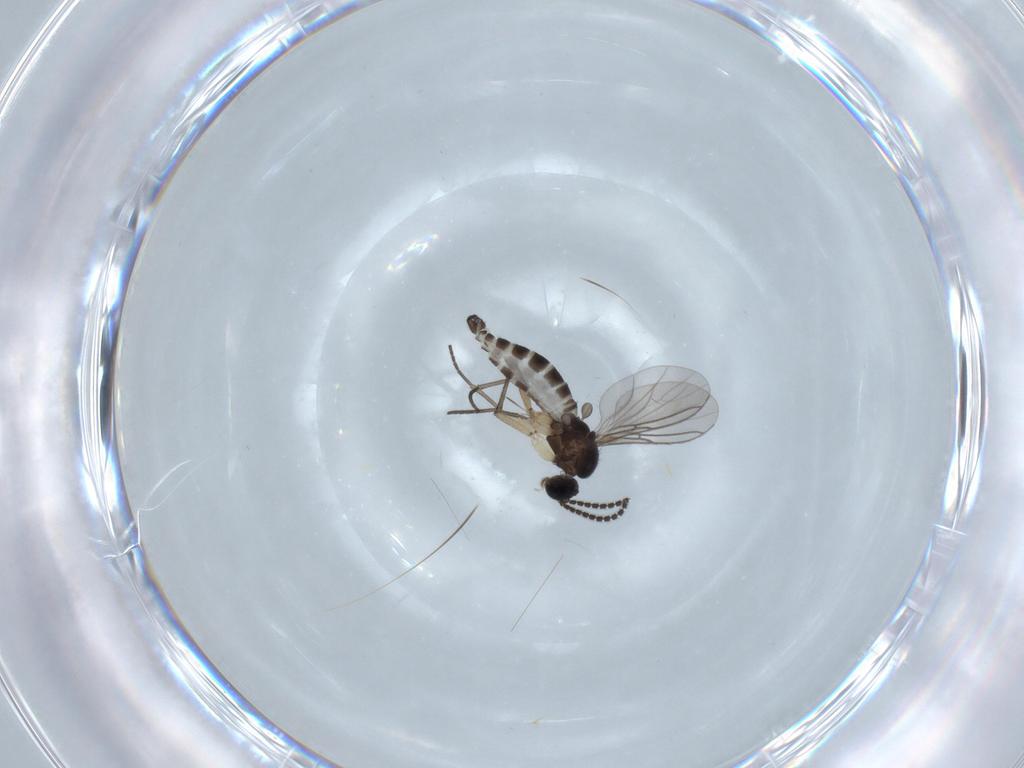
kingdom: Animalia
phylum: Arthropoda
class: Insecta
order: Diptera
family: Sciaridae
